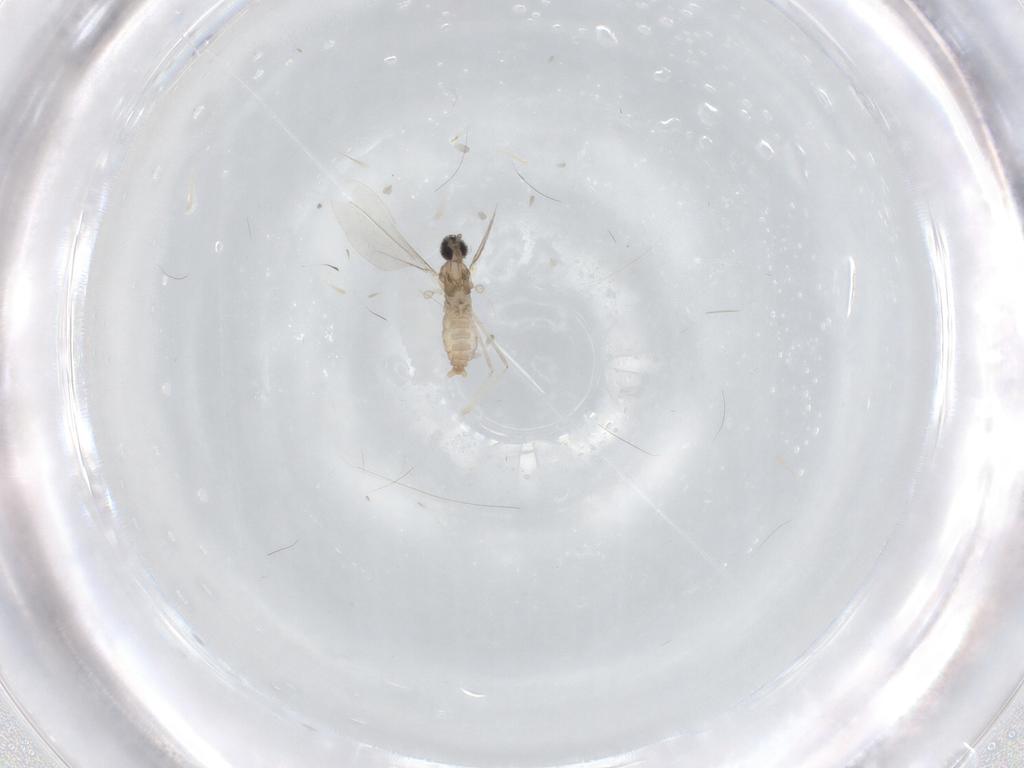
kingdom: Animalia
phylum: Arthropoda
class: Insecta
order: Diptera
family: Cecidomyiidae
